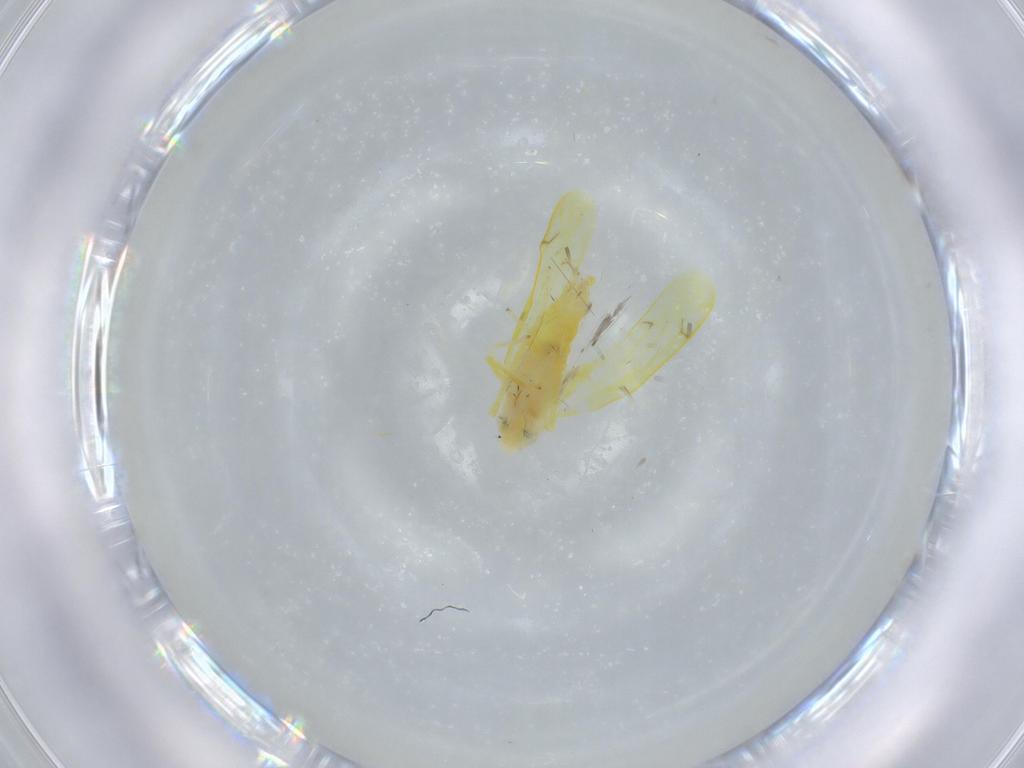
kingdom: Animalia
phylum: Arthropoda
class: Insecta
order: Hemiptera
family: Cicadellidae
